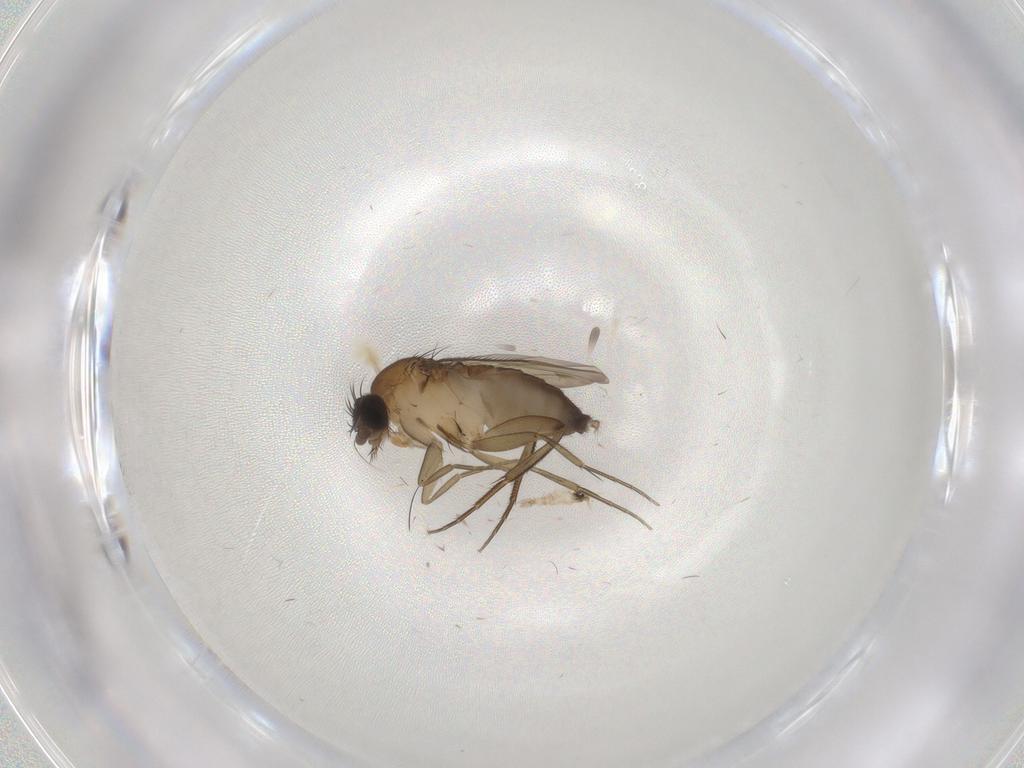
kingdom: Animalia
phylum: Arthropoda
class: Insecta
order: Diptera
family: Phoridae
